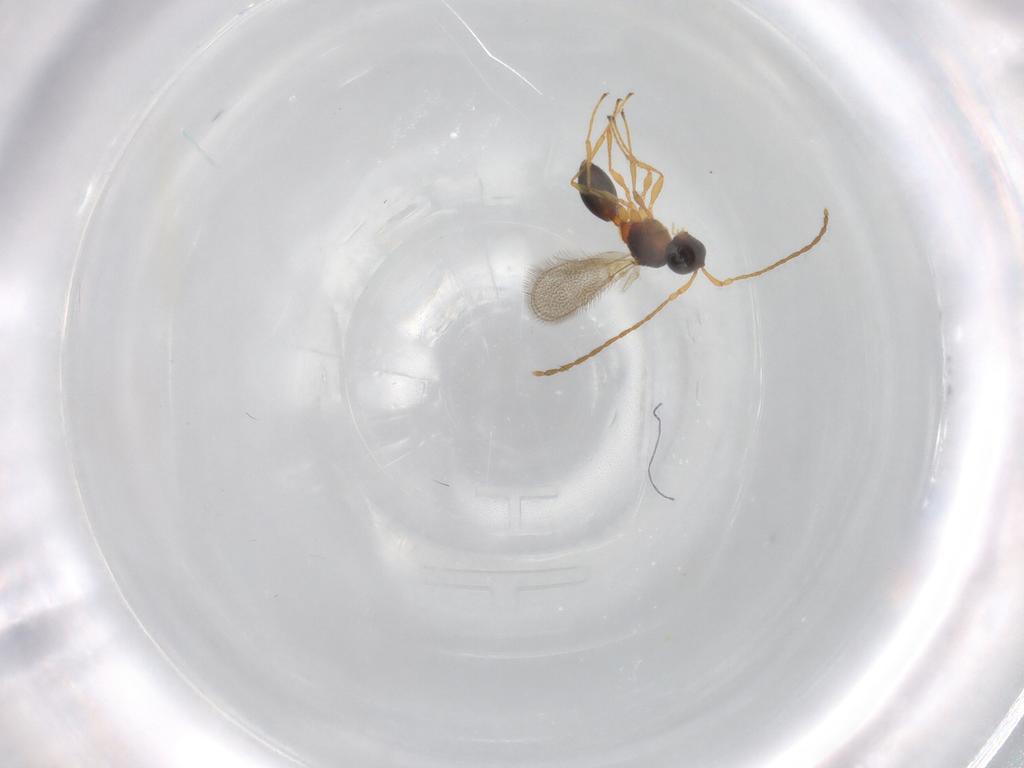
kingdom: Animalia
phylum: Arthropoda
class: Insecta
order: Hymenoptera
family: Diapriidae
